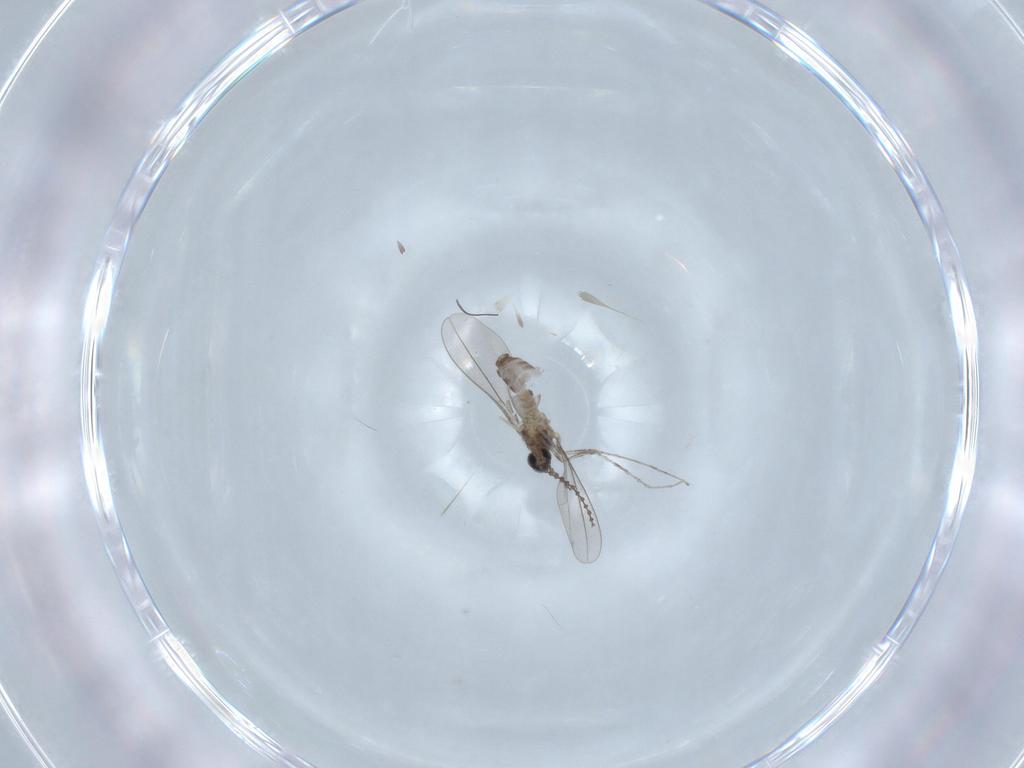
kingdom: Animalia
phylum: Arthropoda
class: Insecta
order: Diptera
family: Cecidomyiidae
